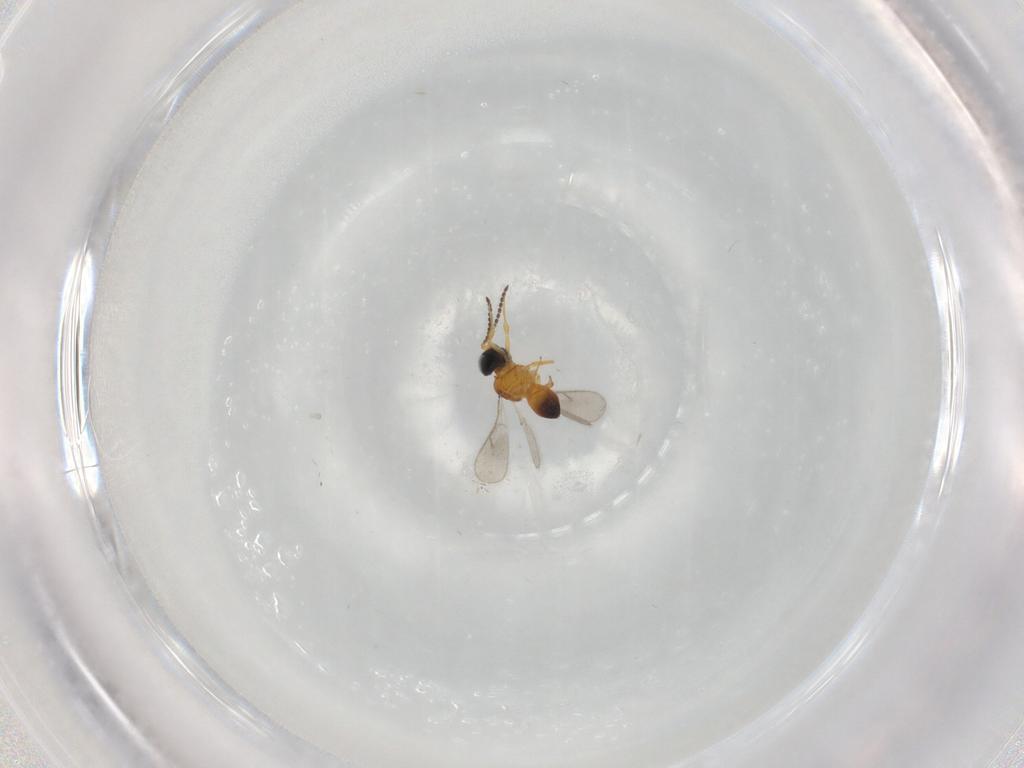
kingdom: Animalia
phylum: Arthropoda
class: Insecta
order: Hymenoptera
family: Scelionidae
